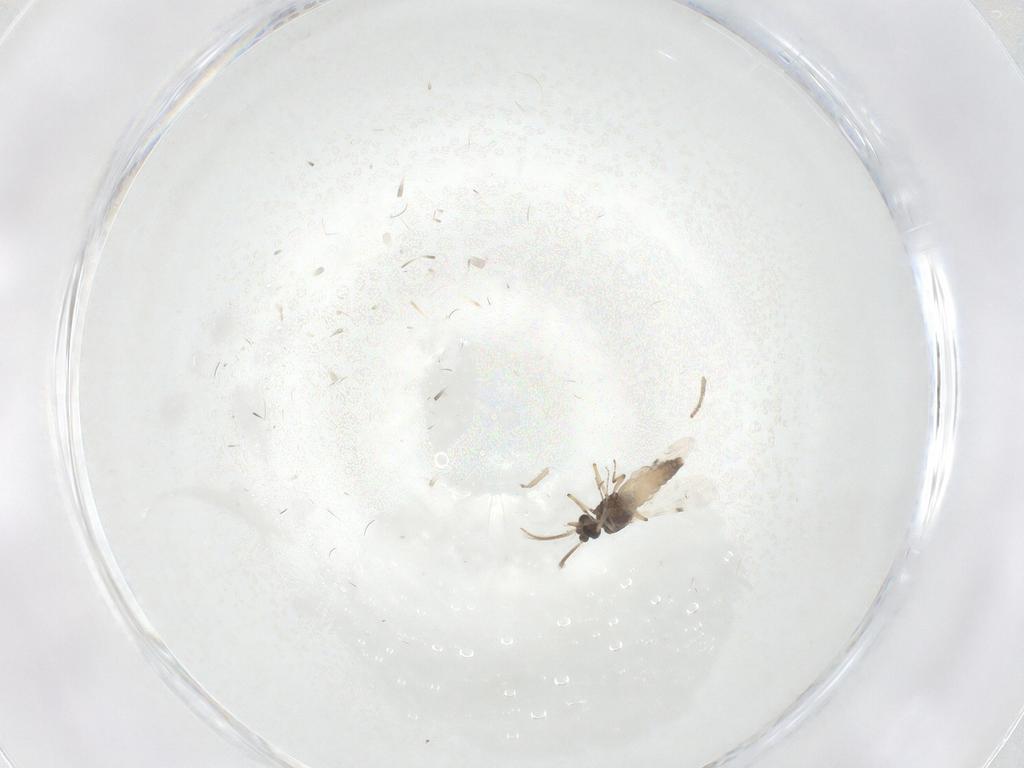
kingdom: Animalia
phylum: Arthropoda
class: Insecta
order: Diptera
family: Psychodidae
